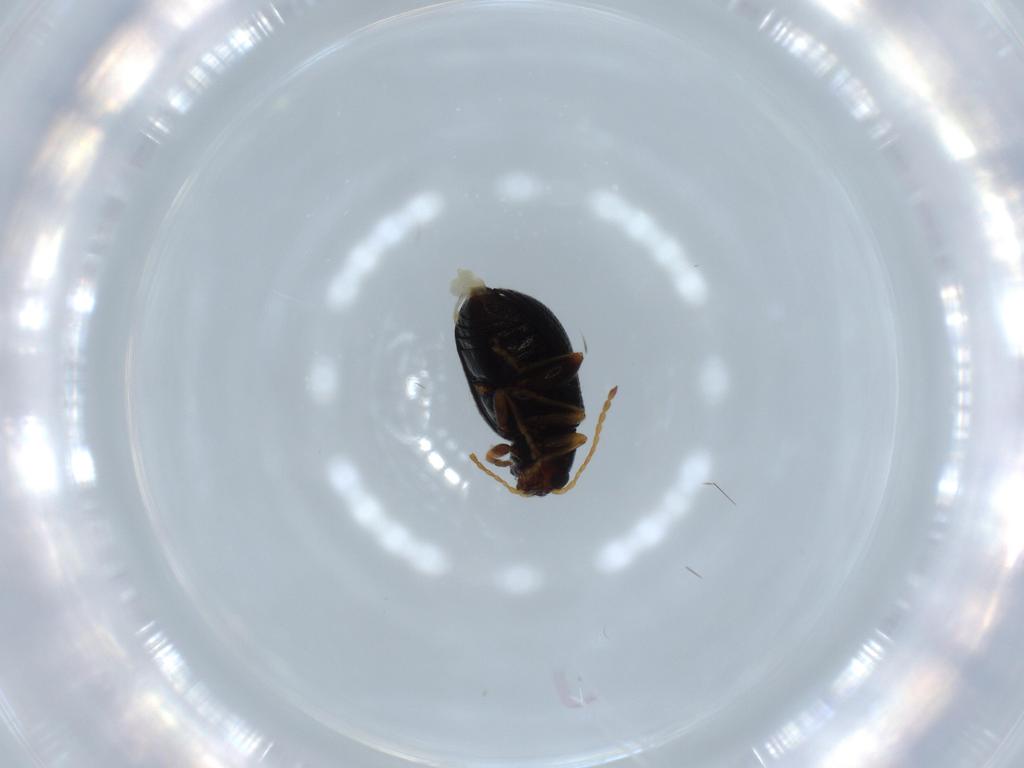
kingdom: Animalia
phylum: Arthropoda
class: Insecta
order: Coleoptera
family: Chrysomelidae
